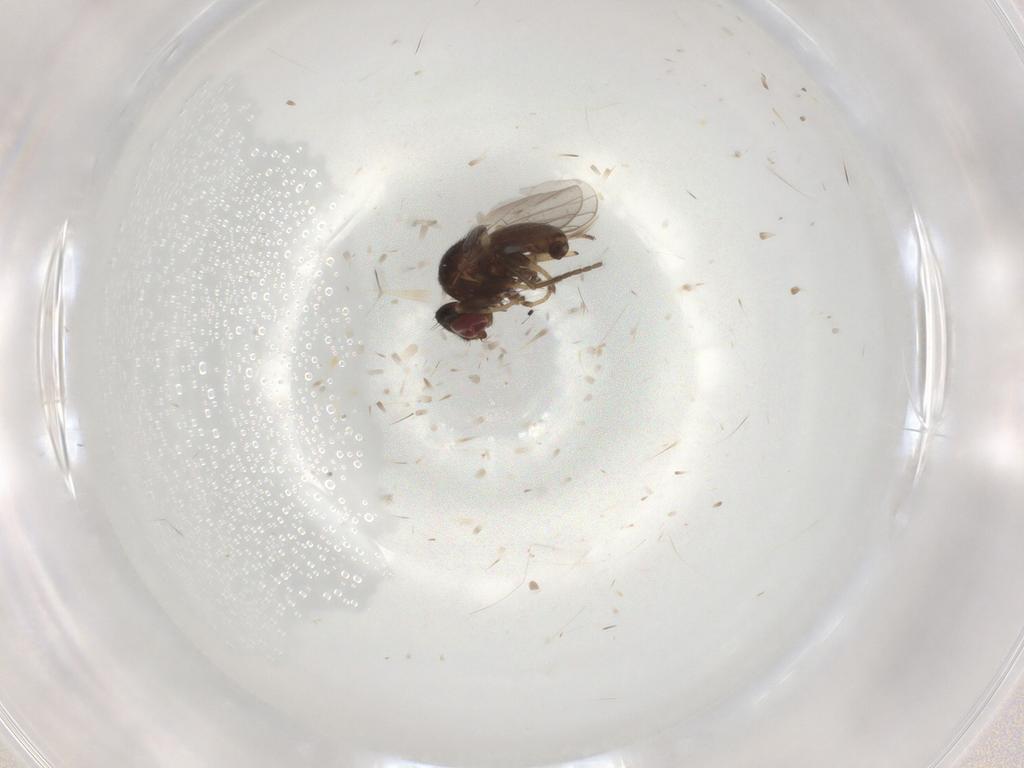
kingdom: Animalia
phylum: Arthropoda
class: Insecta
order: Diptera
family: Chloropidae
